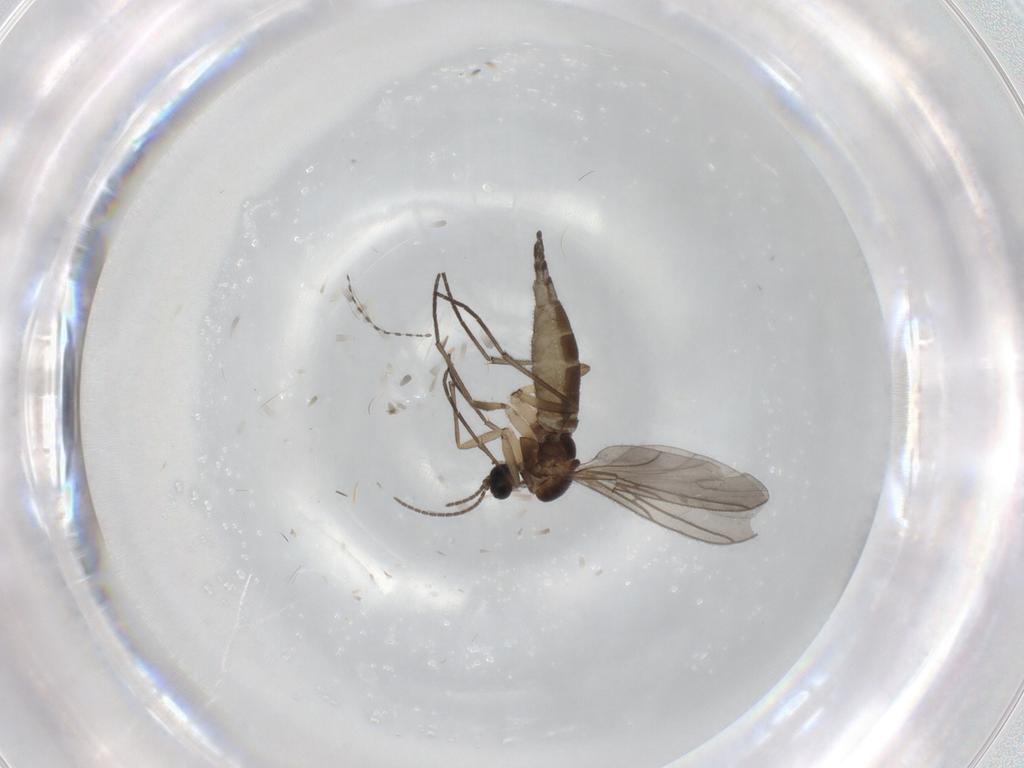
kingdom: Animalia
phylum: Arthropoda
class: Insecta
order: Diptera
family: Sciaridae
